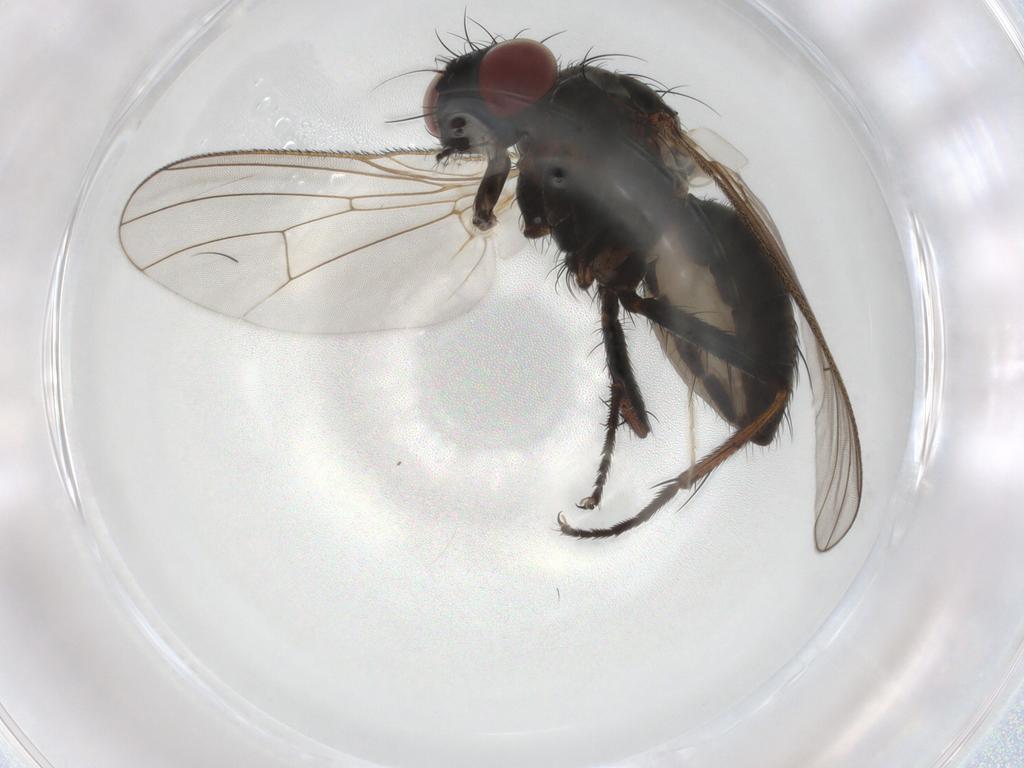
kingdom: Animalia
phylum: Arthropoda
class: Insecta
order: Diptera
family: Muscidae
